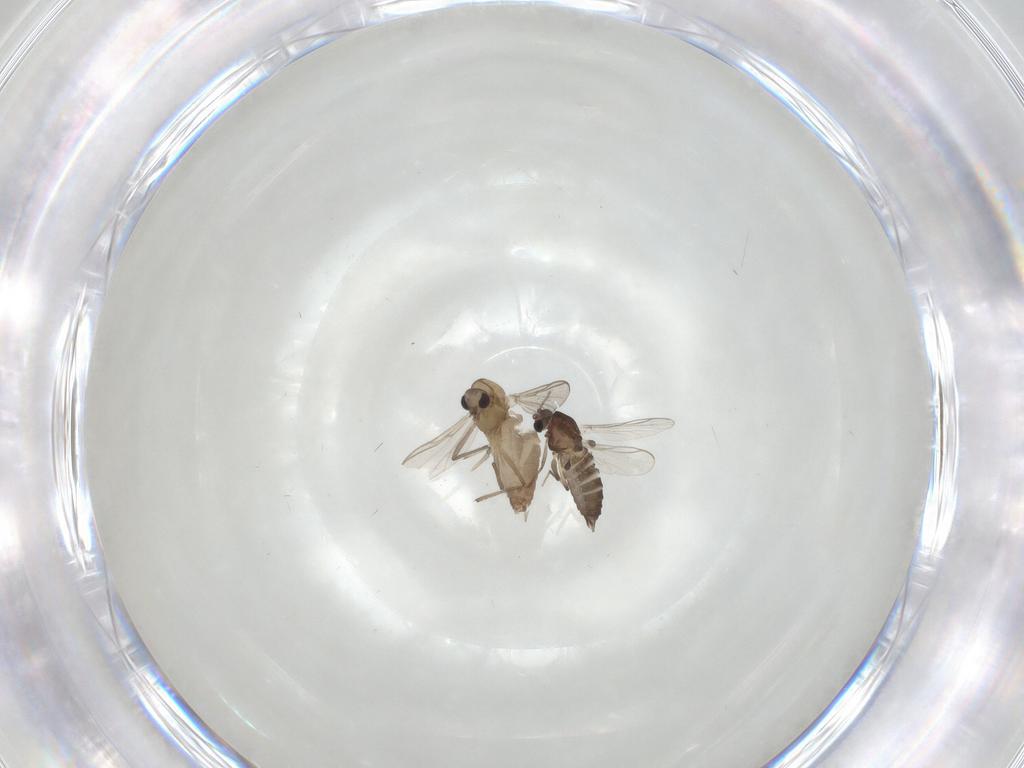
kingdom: Animalia
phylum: Arthropoda
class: Insecta
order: Diptera
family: Chironomidae
